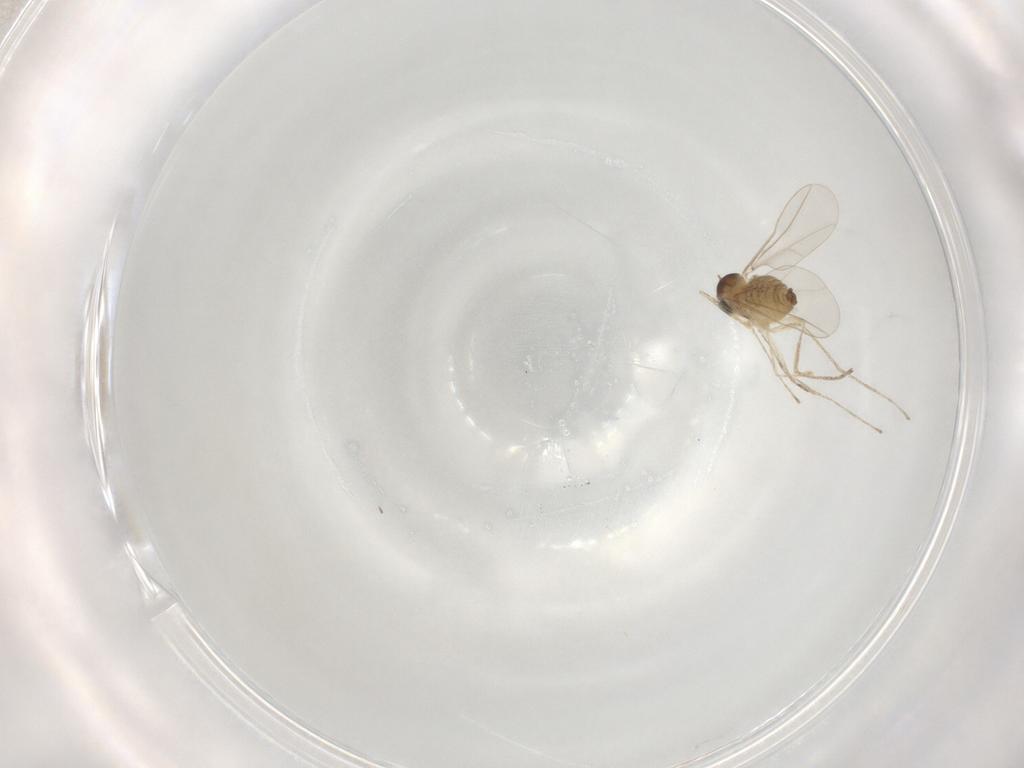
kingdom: Animalia
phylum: Arthropoda
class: Insecta
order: Diptera
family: Cecidomyiidae
